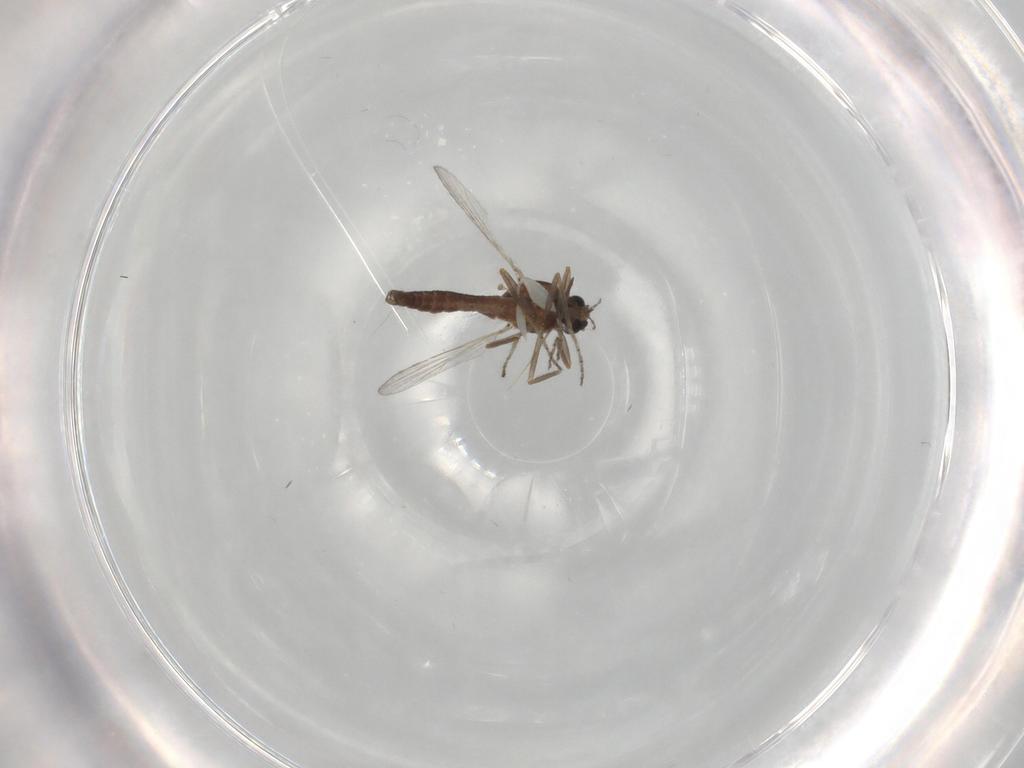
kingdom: Animalia
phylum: Arthropoda
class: Insecta
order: Diptera
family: Ceratopogonidae
